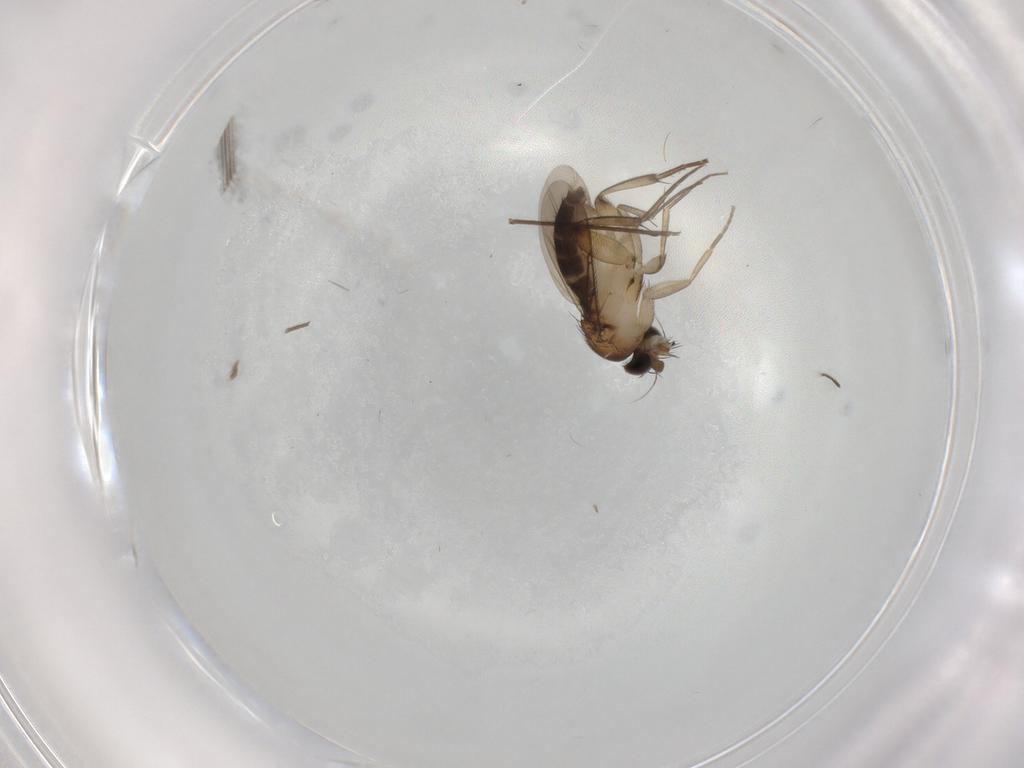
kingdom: Animalia
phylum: Arthropoda
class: Insecta
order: Diptera
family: Phoridae
